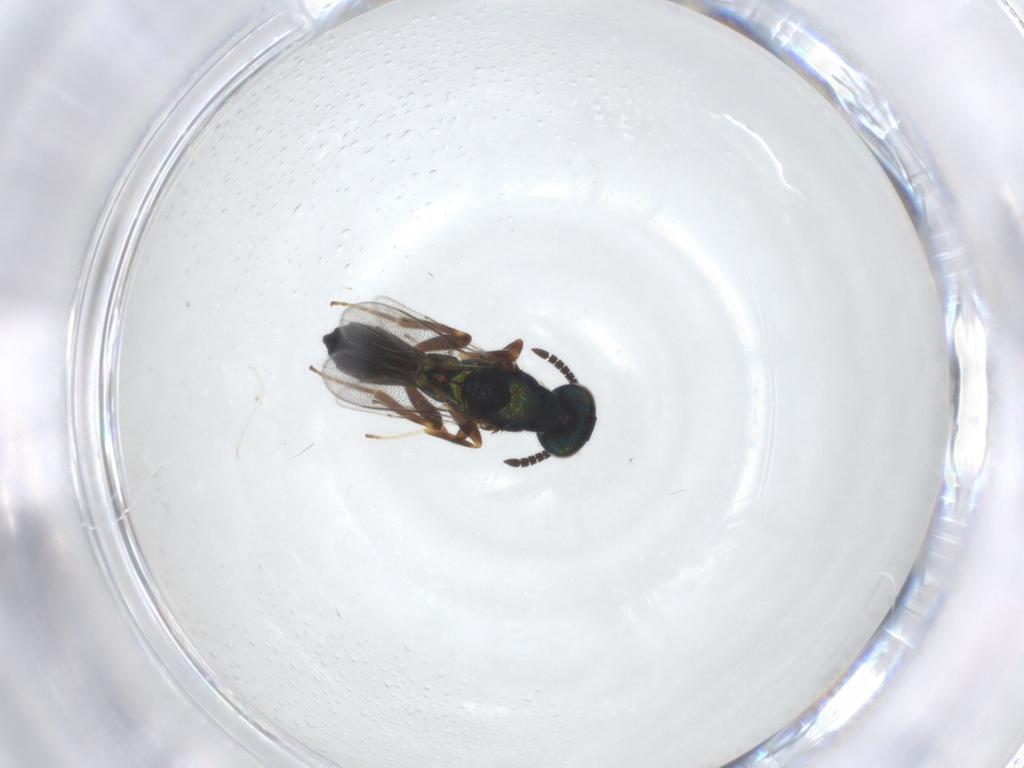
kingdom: Animalia
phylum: Arthropoda
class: Insecta
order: Hymenoptera
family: Cleonyminae
